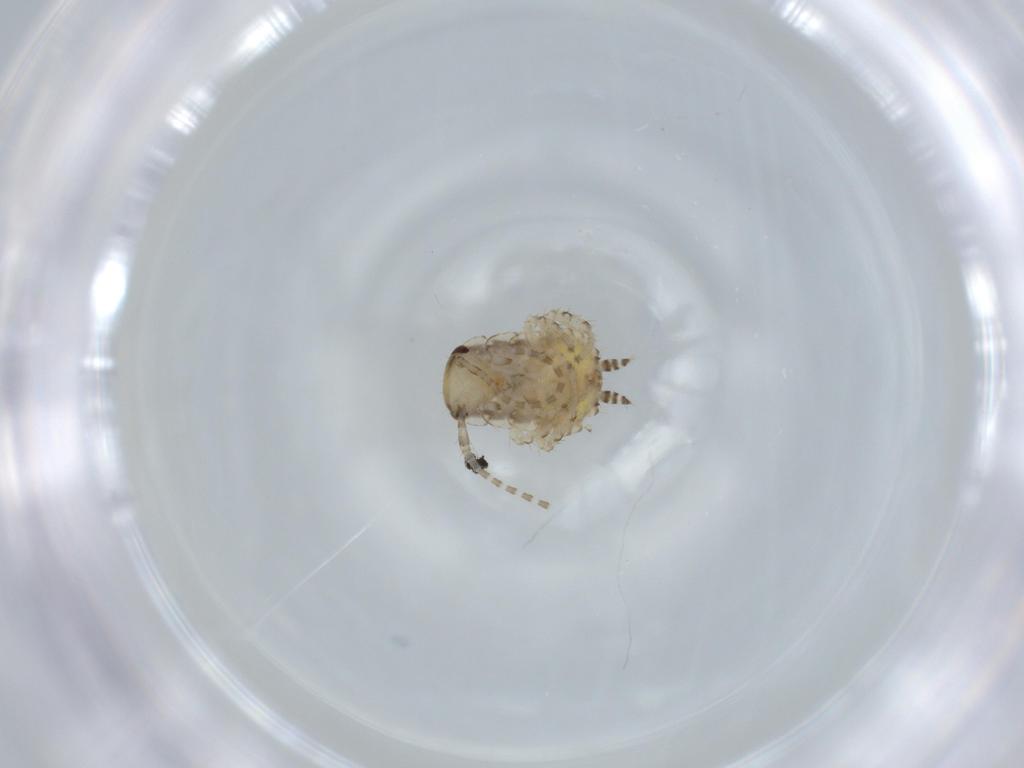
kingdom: Animalia
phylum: Arthropoda
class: Insecta
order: Blattodea
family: Ectobiidae
